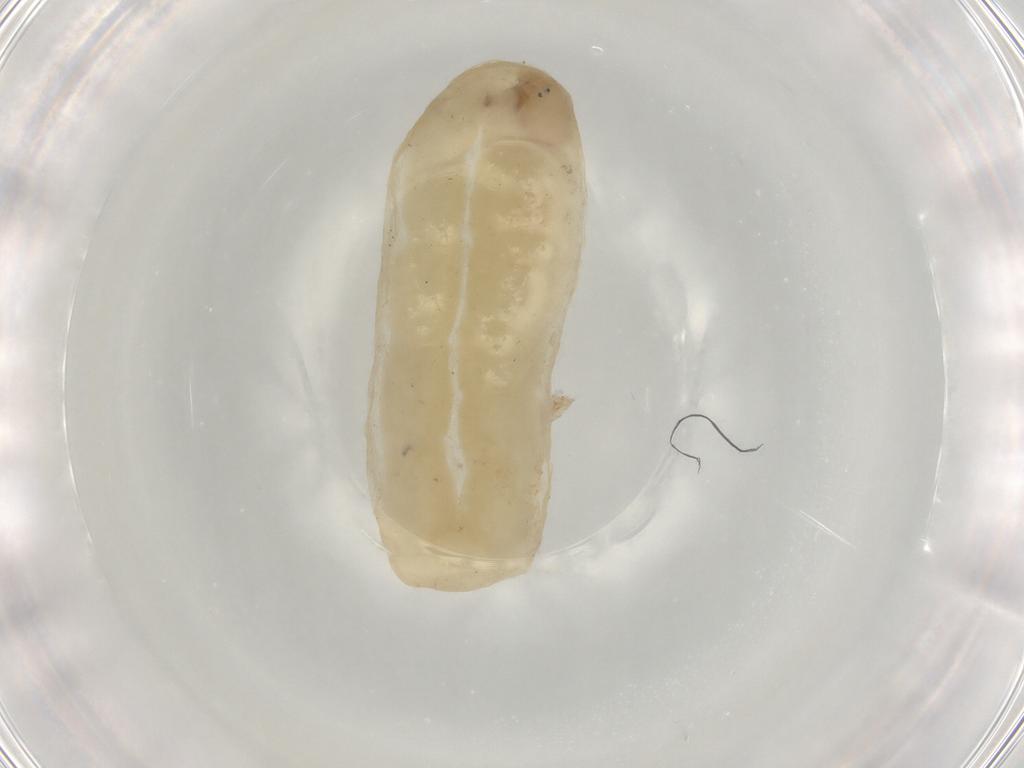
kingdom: Animalia
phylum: Arthropoda
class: Insecta
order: Diptera
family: Chironomidae
